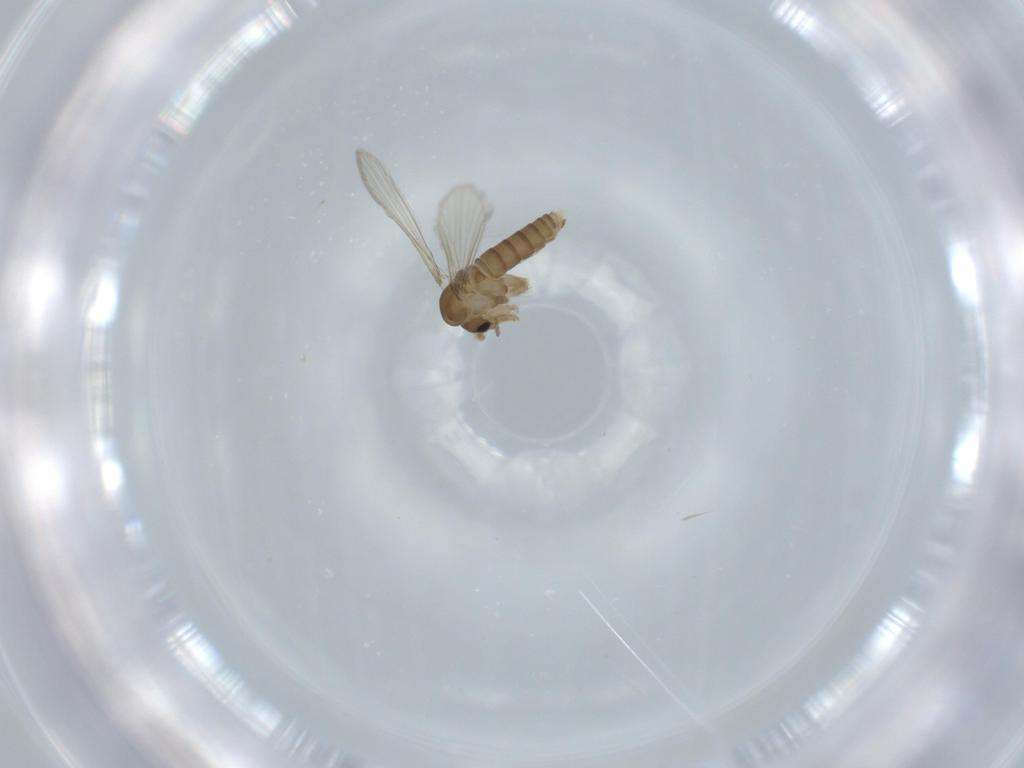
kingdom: Animalia
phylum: Arthropoda
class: Insecta
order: Diptera
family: Psychodidae
